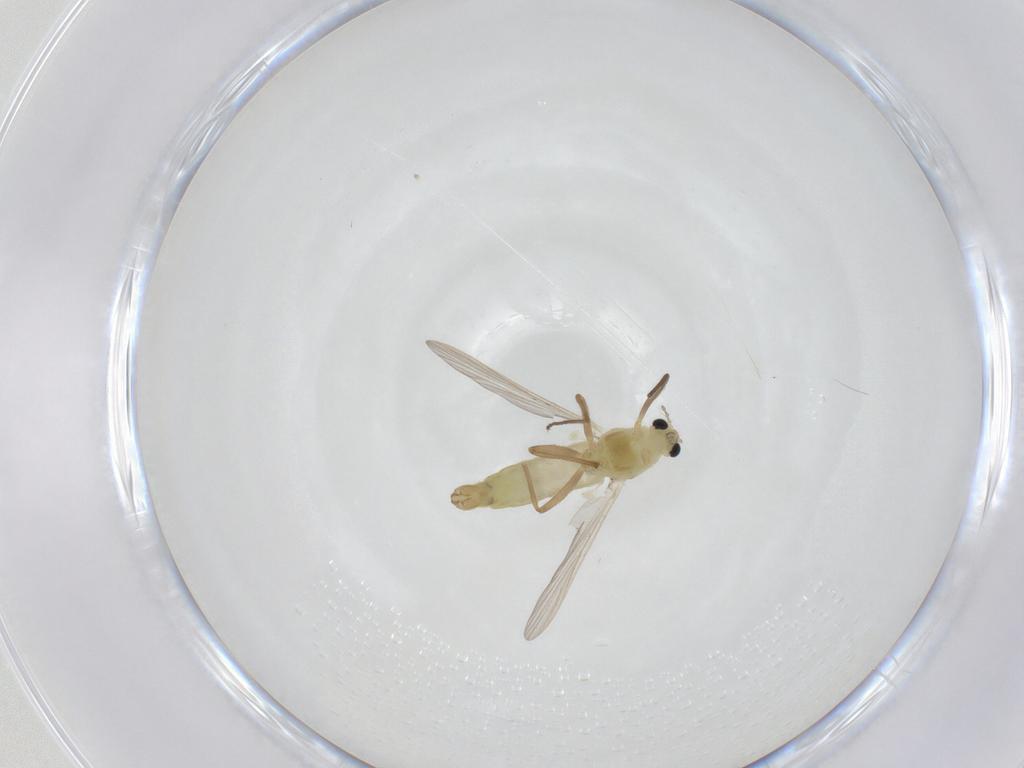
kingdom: Animalia
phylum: Arthropoda
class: Insecta
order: Diptera
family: Chironomidae
